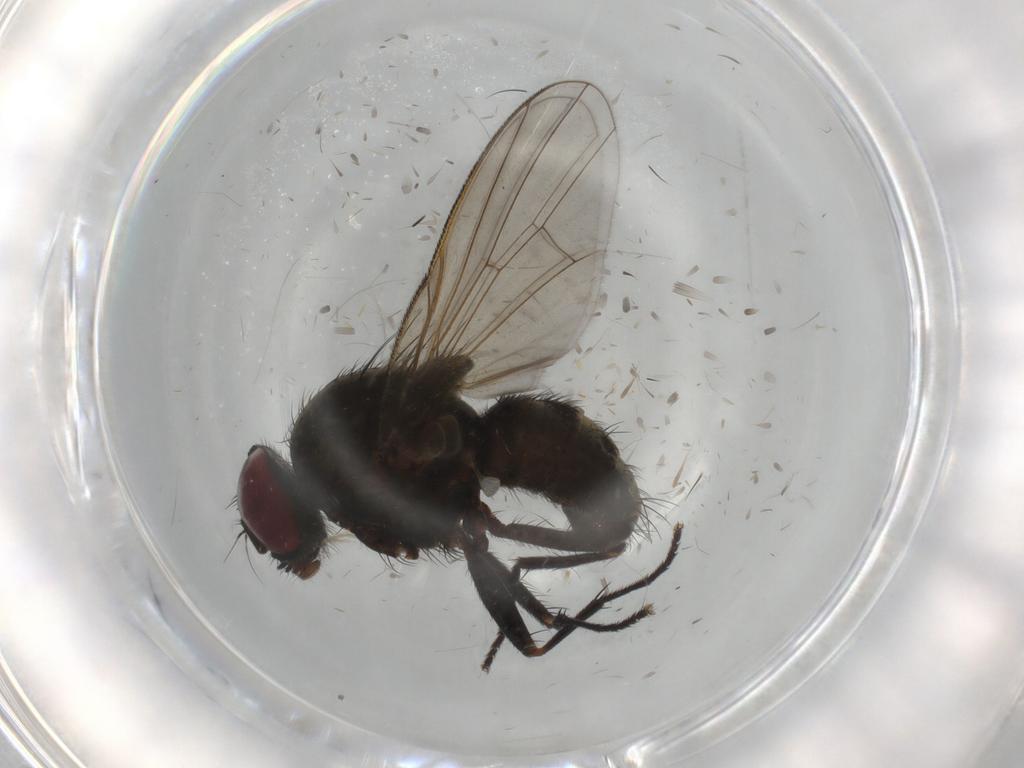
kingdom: Animalia
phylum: Arthropoda
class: Insecta
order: Diptera
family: Muscidae
